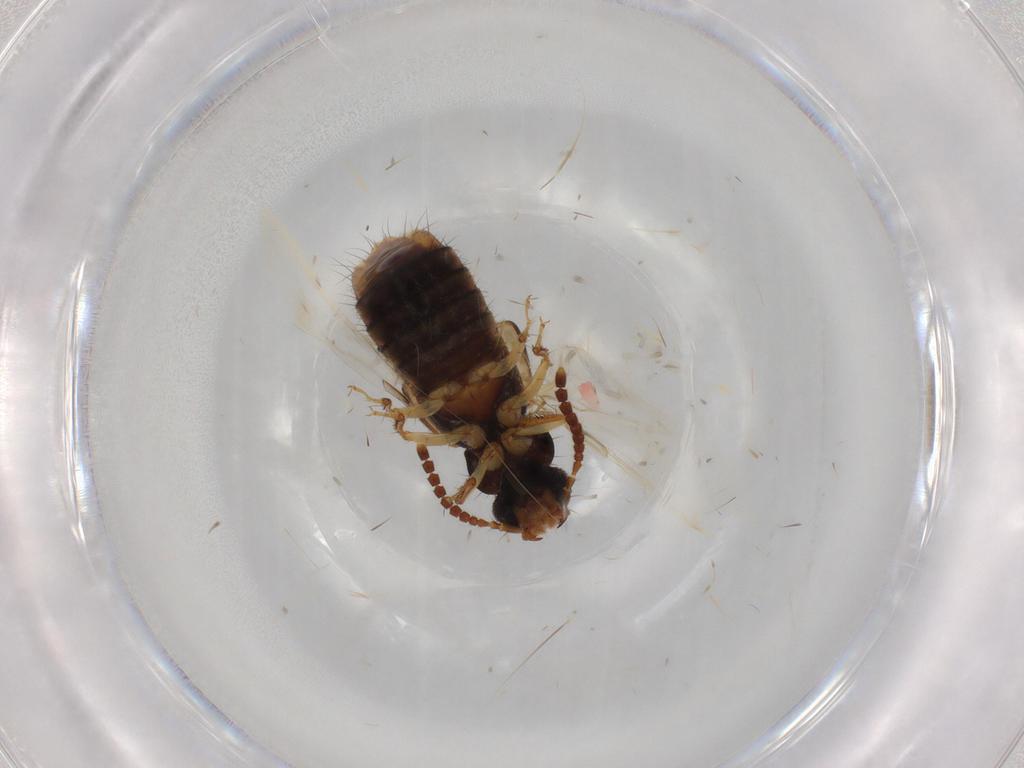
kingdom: Animalia
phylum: Arthropoda
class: Insecta
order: Coleoptera
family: Staphylinidae
